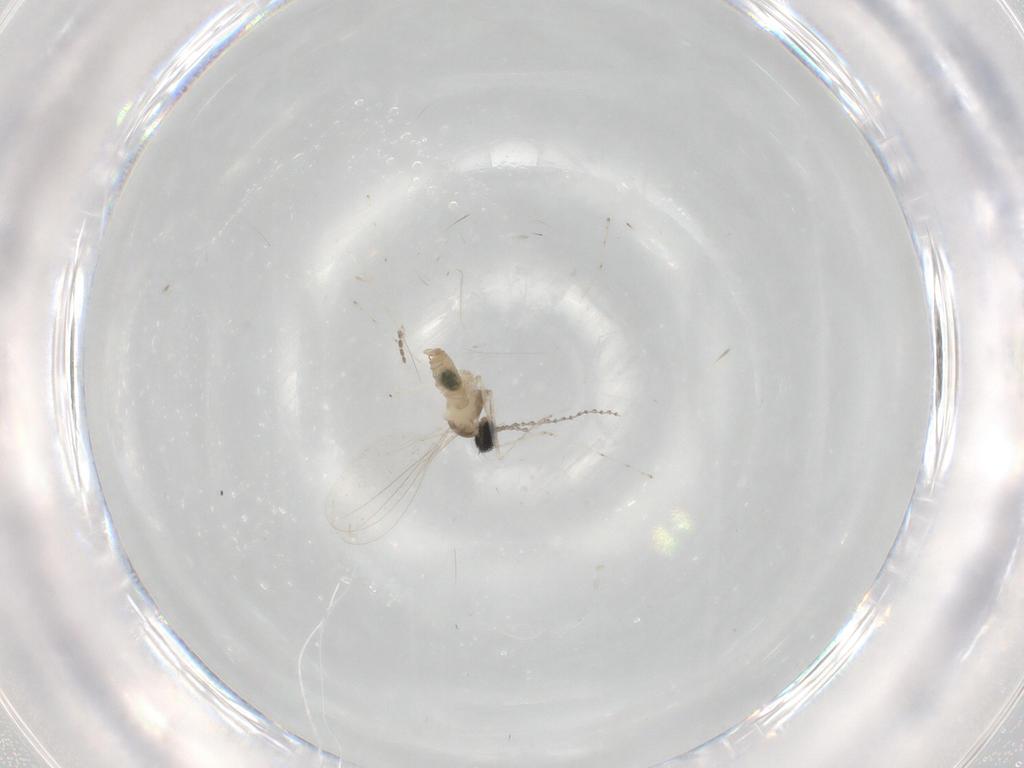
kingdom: Animalia
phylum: Arthropoda
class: Insecta
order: Diptera
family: Cecidomyiidae
